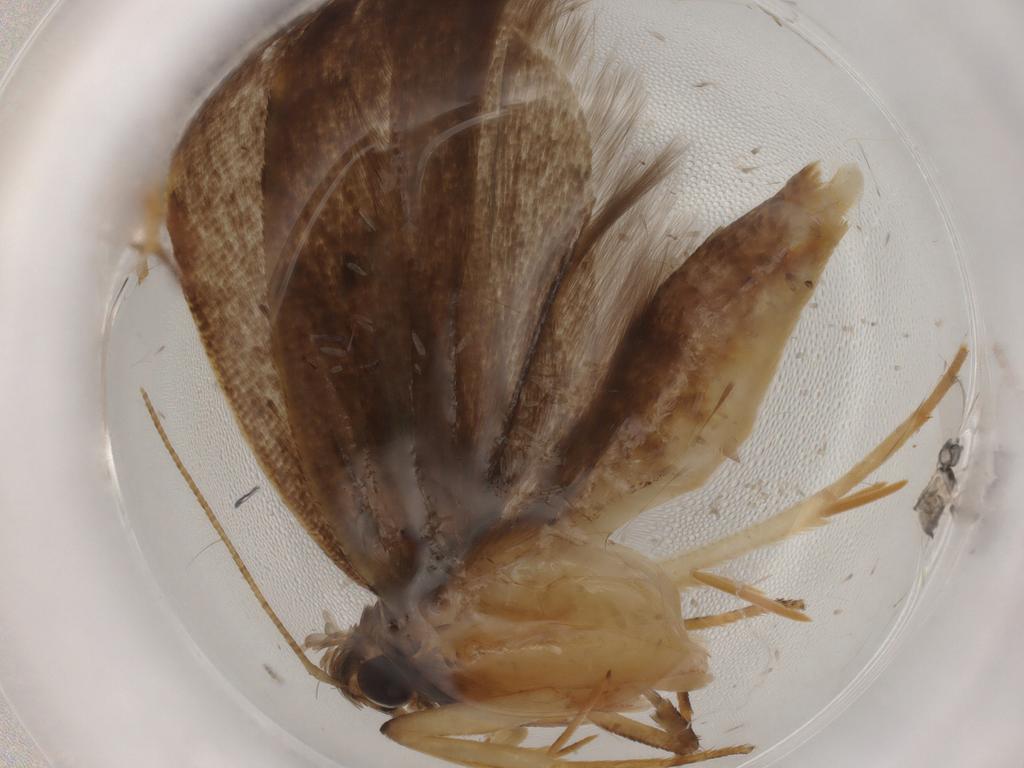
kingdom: Animalia
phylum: Arthropoda
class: Insecta
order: Lepidoptera
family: Gelechiidae
